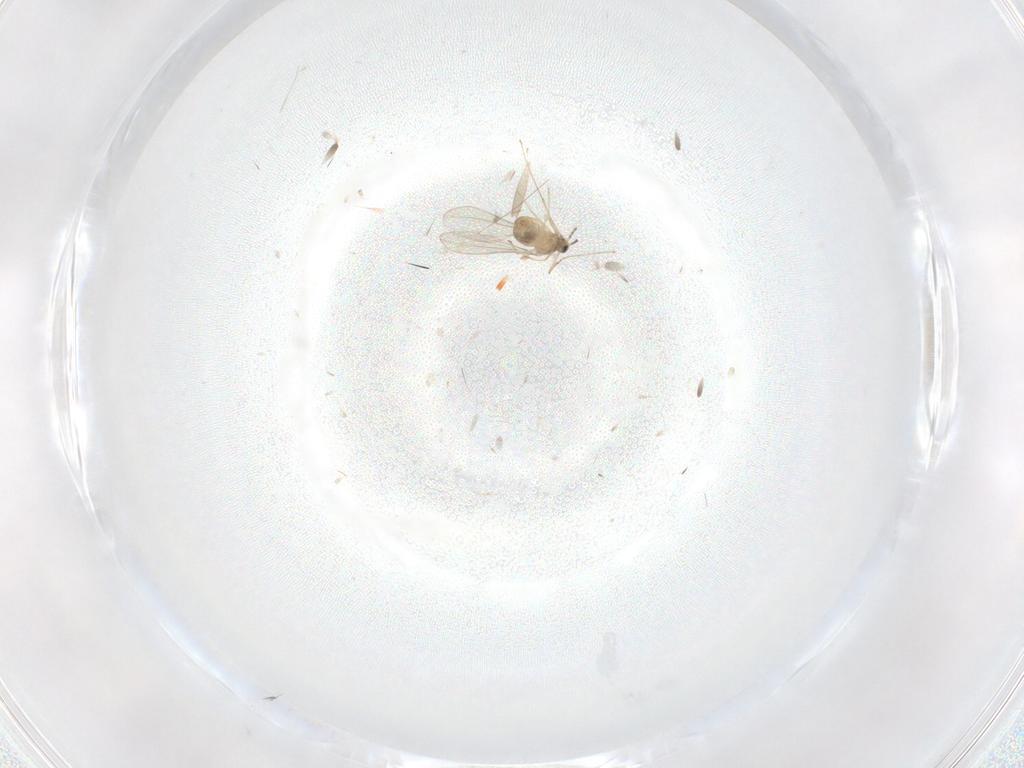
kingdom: Animalia
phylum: Arthropoda
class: Insecta
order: Diptera
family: Cecidomyiidae
